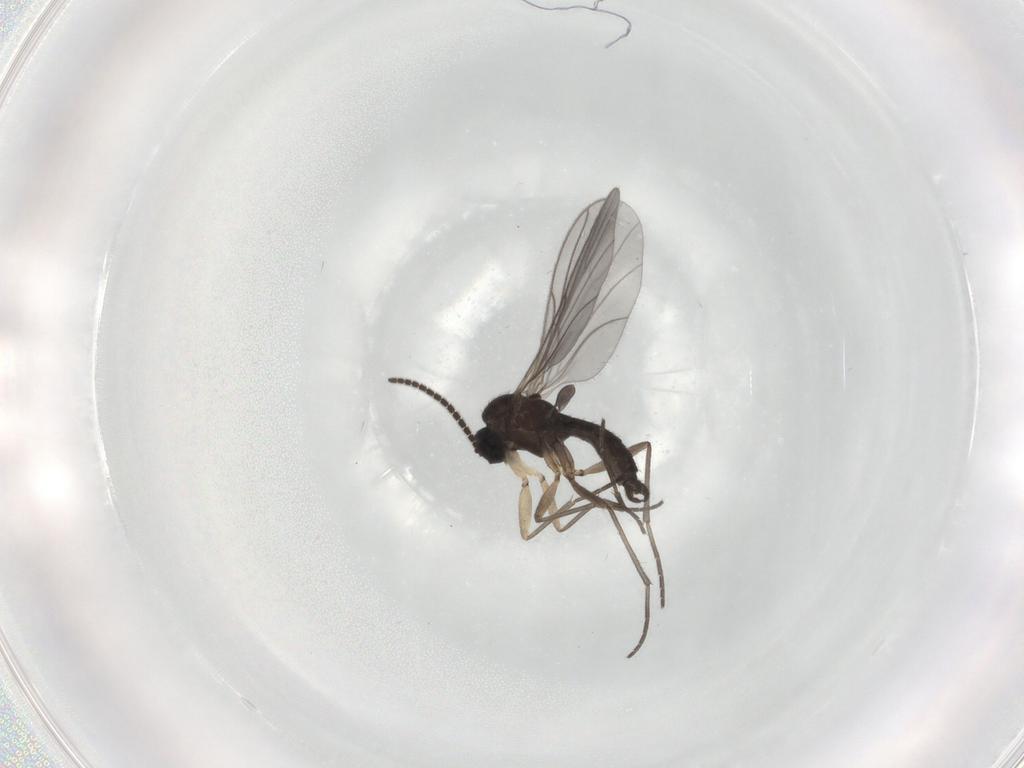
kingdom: Animalia
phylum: Arthropoda
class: Insecta
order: Diptera
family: Sciaridae
